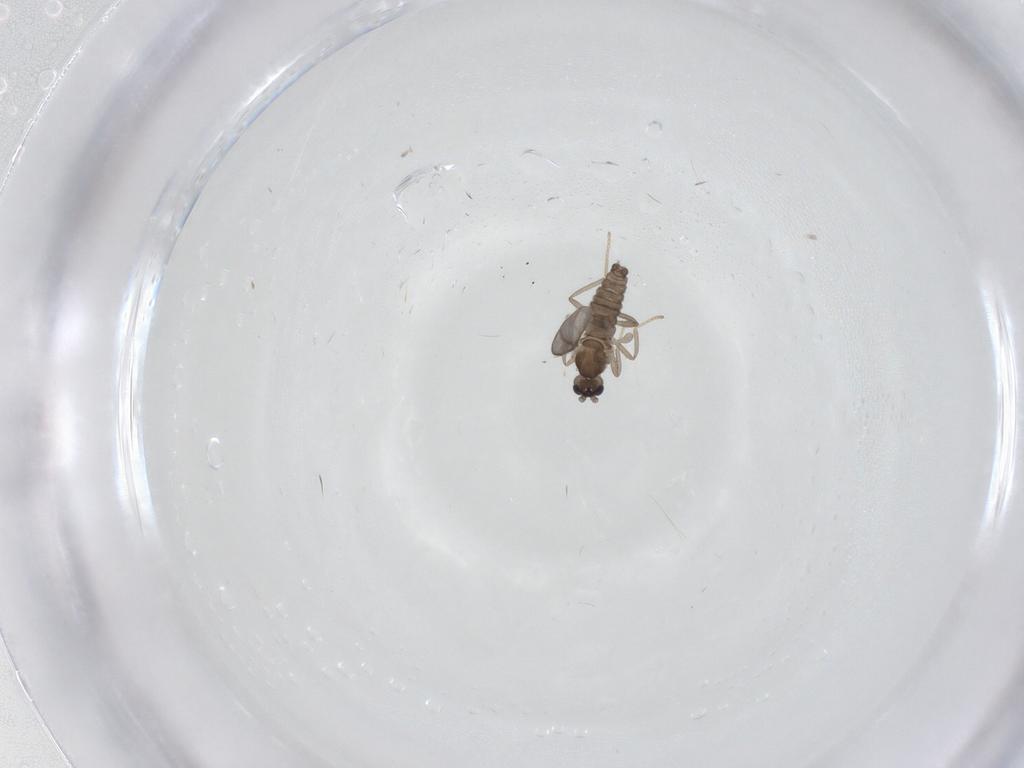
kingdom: Animalia
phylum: Arthropoda
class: Insecta
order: Diptera
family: Cecidomyiidae
